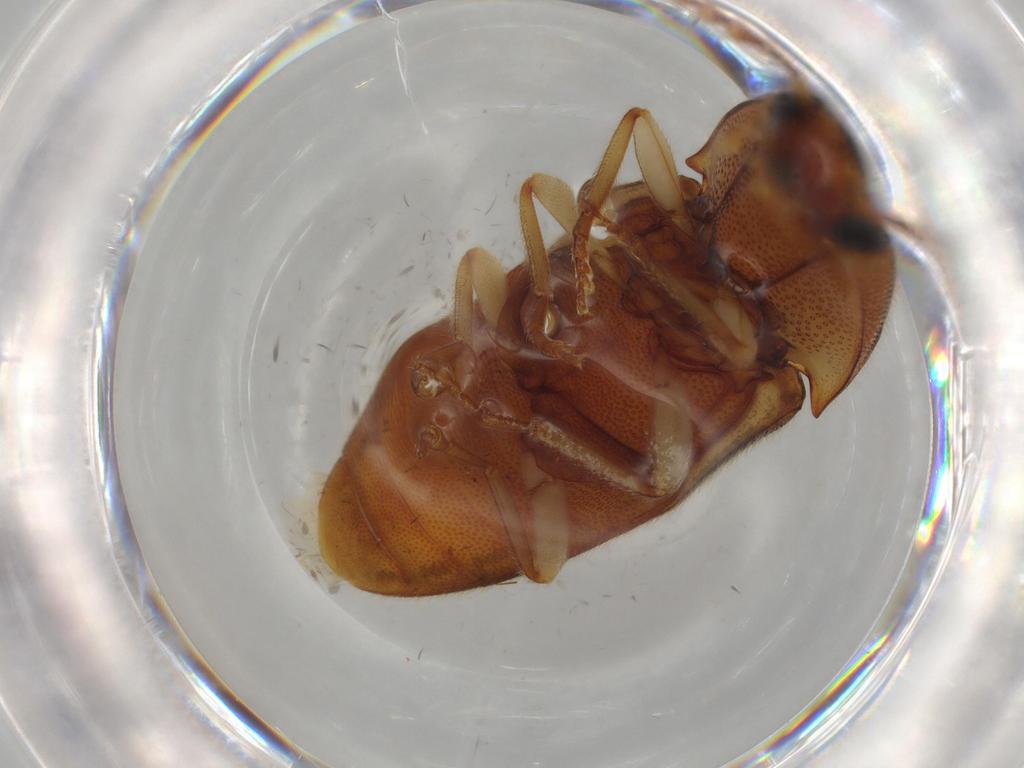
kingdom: Animalia
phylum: Arthropoda
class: Insecta
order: Coleoptera
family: Elateridae
